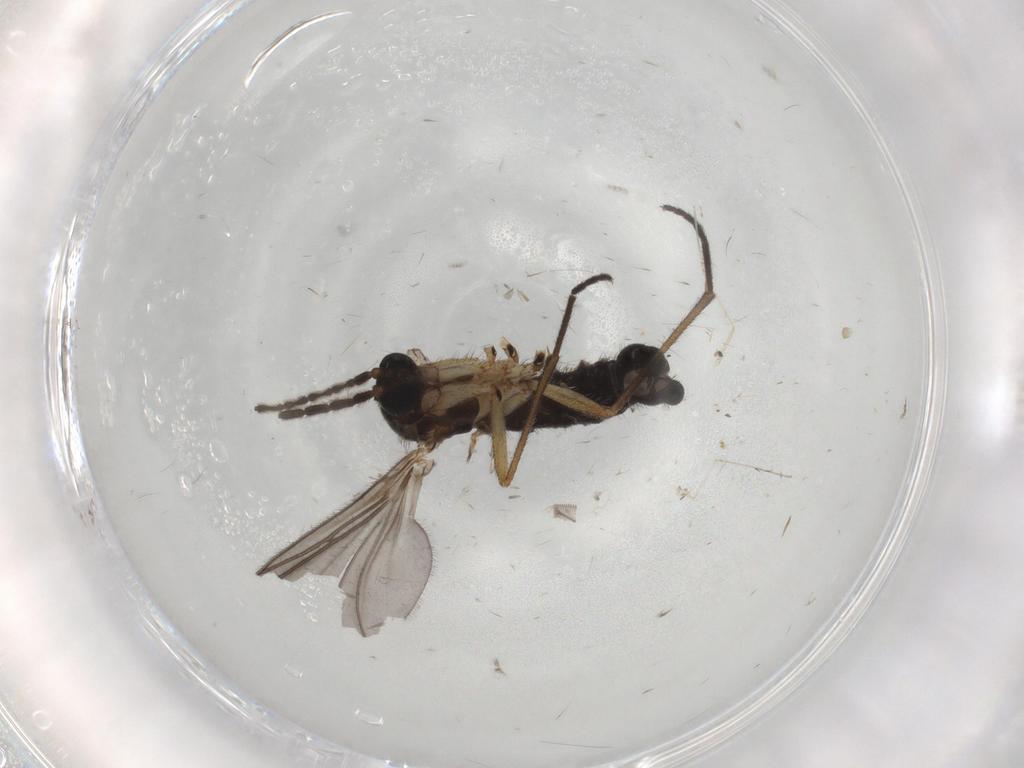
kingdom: Animalia
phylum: Arthropoda
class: Insecta
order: Diptera
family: Sciaridae
